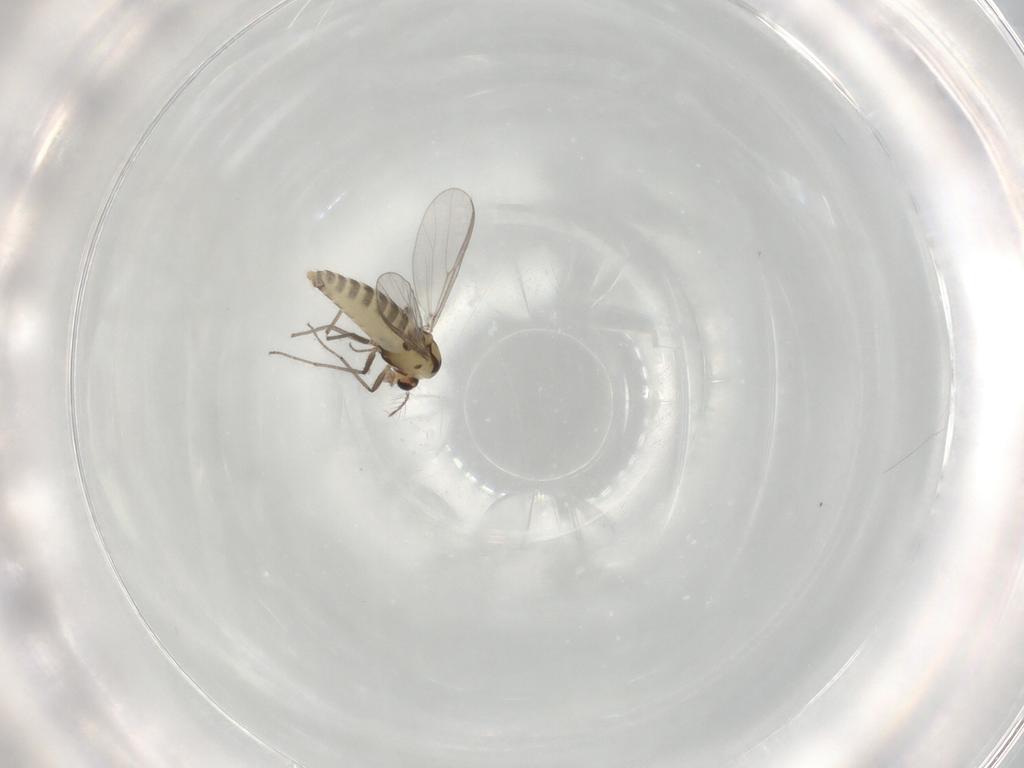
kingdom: Animalia
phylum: Arthropoda
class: Insecta
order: Diptera
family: Chironomidae
